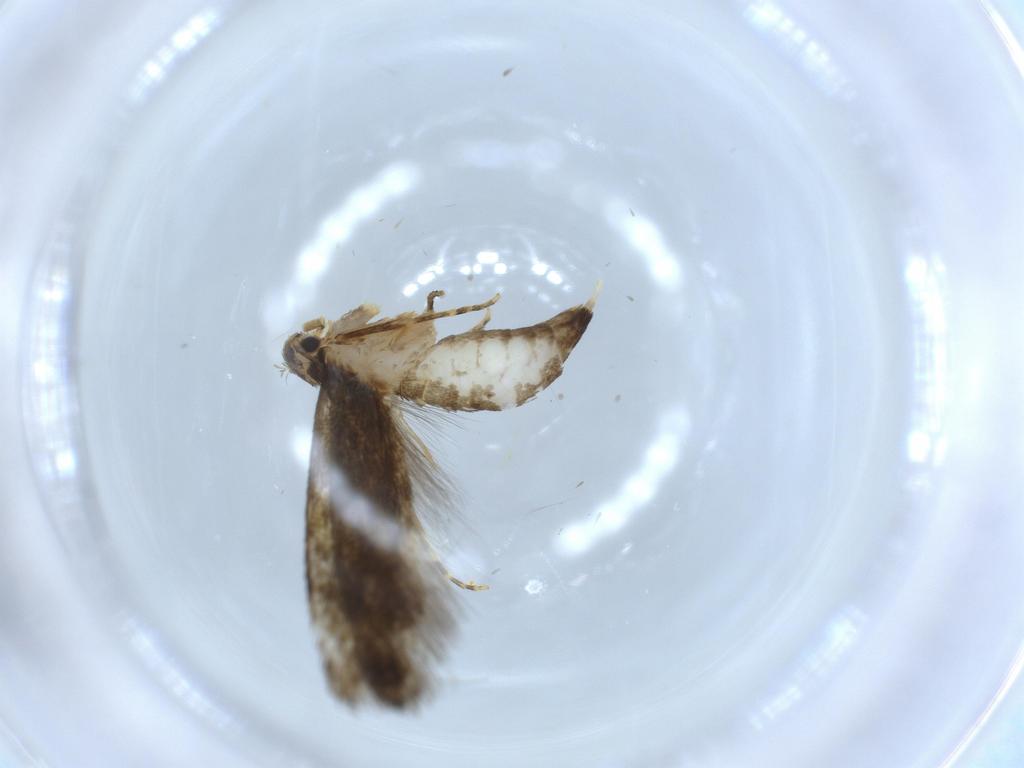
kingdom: Animalia
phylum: Arthropoda
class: Insecta
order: Lepidoptera
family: Tineidae
